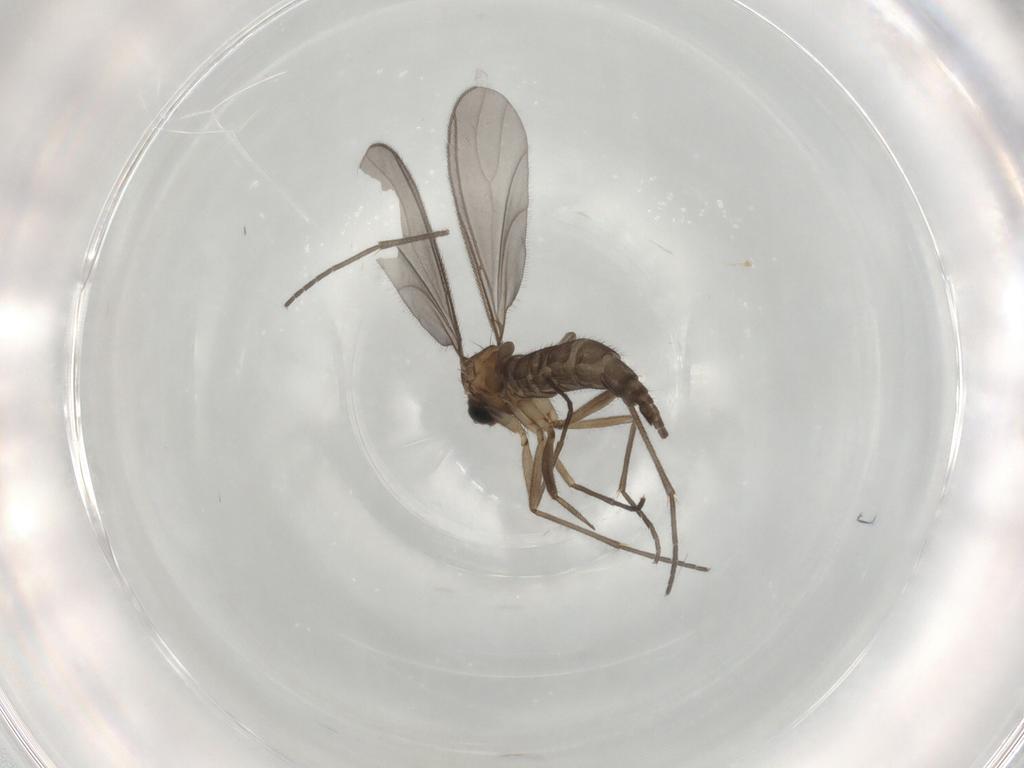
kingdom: Animalia
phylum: Arthropoda
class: Insecta
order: Diptera
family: Sciaridae
